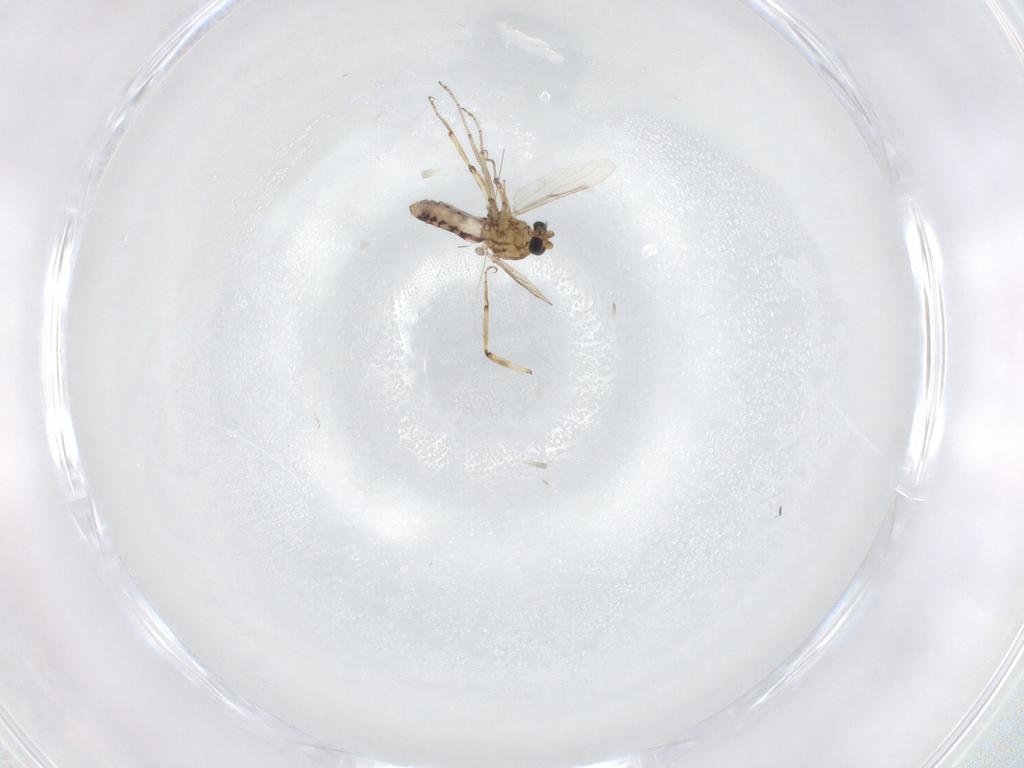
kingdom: Animalia
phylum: Arthropoda
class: Insecta
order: Diptera
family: Ceratopogonidae
